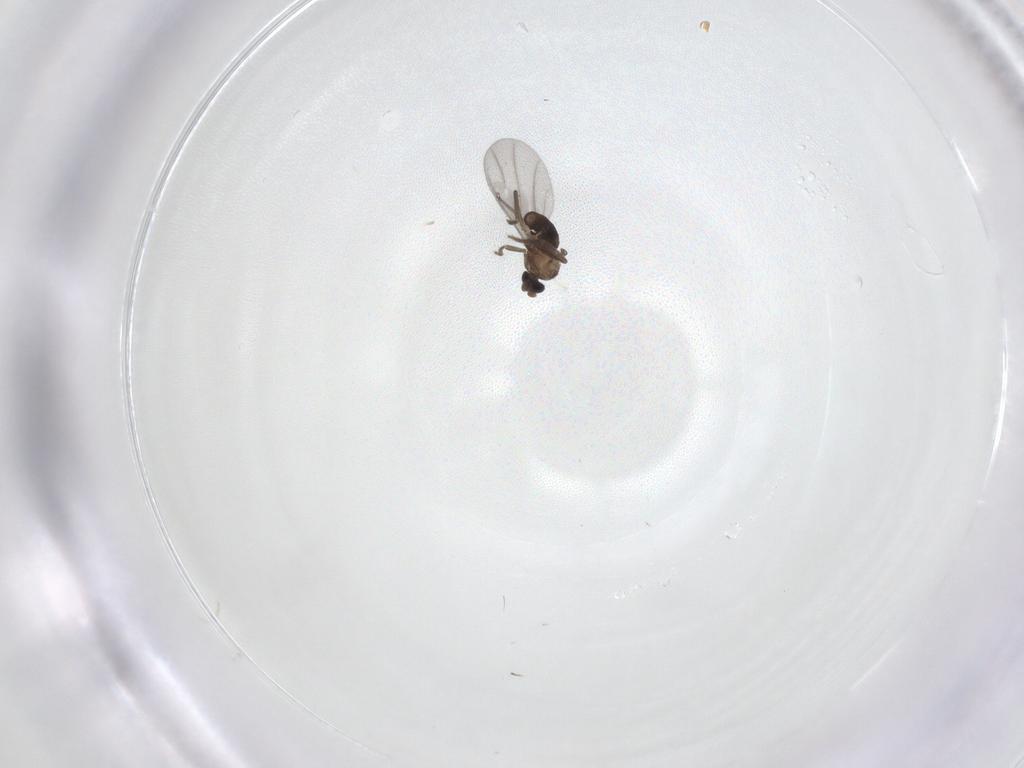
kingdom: Animalia
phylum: Arthropoda
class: Insecta
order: Diptera
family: Phoridae
